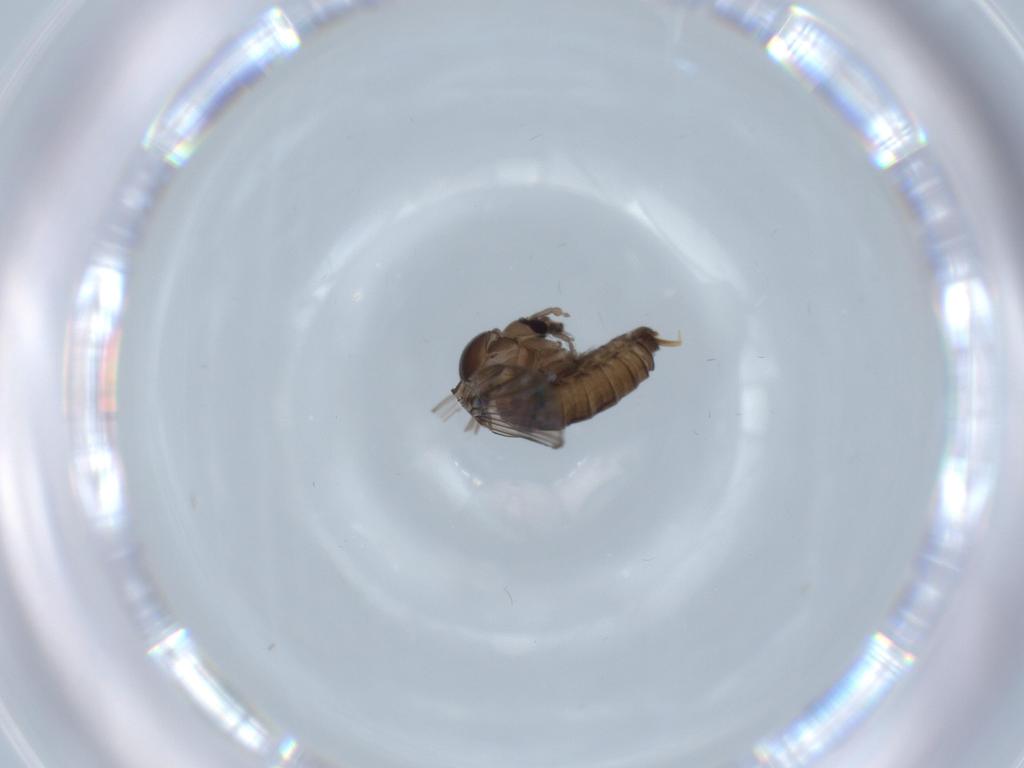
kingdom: Animalia
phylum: Arthropoda
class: Insecta
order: Diptera
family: Psychodidae
